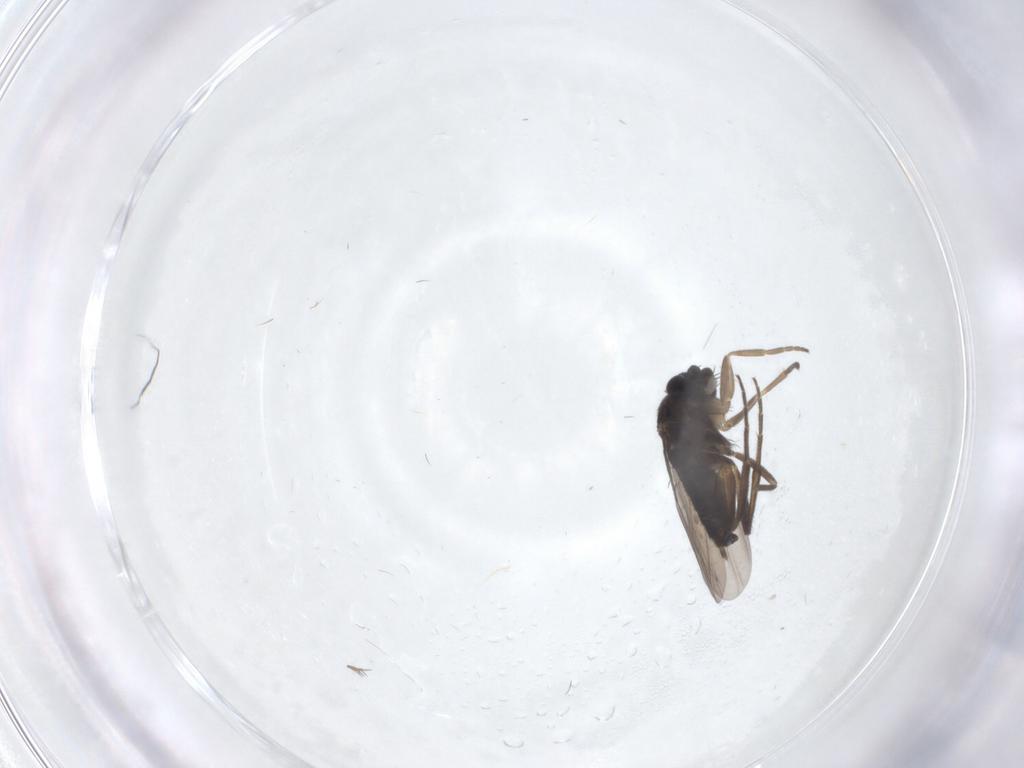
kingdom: Animalia
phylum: Arthropoda
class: Insecta
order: Diptera
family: Phoridae
